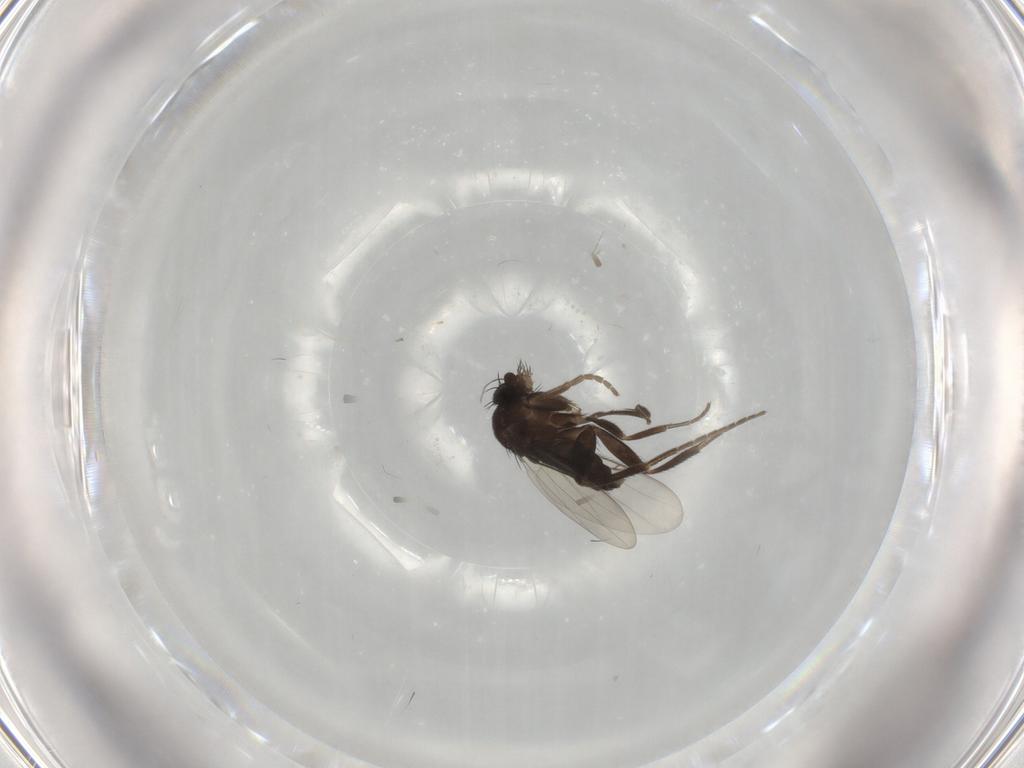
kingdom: Animalia
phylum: Arthropoda
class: Insecta
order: Diptera
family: Phoridae
